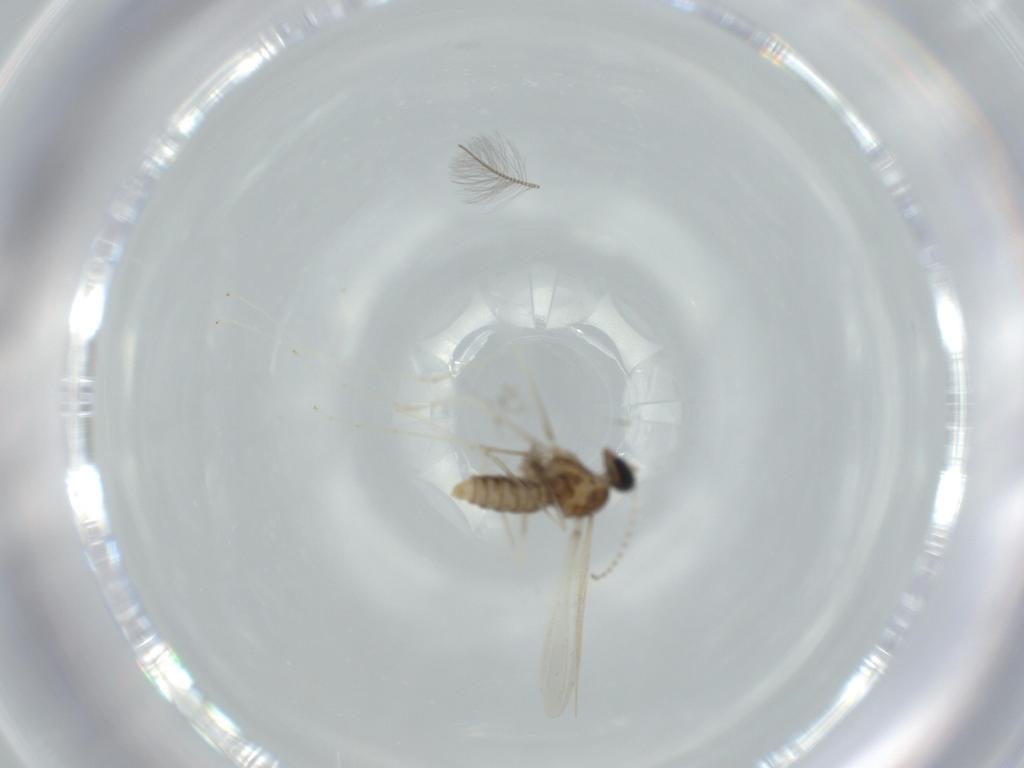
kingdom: Animalia
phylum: Arthropoda
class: Insecta
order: Diptera
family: Cecidomyiidae
